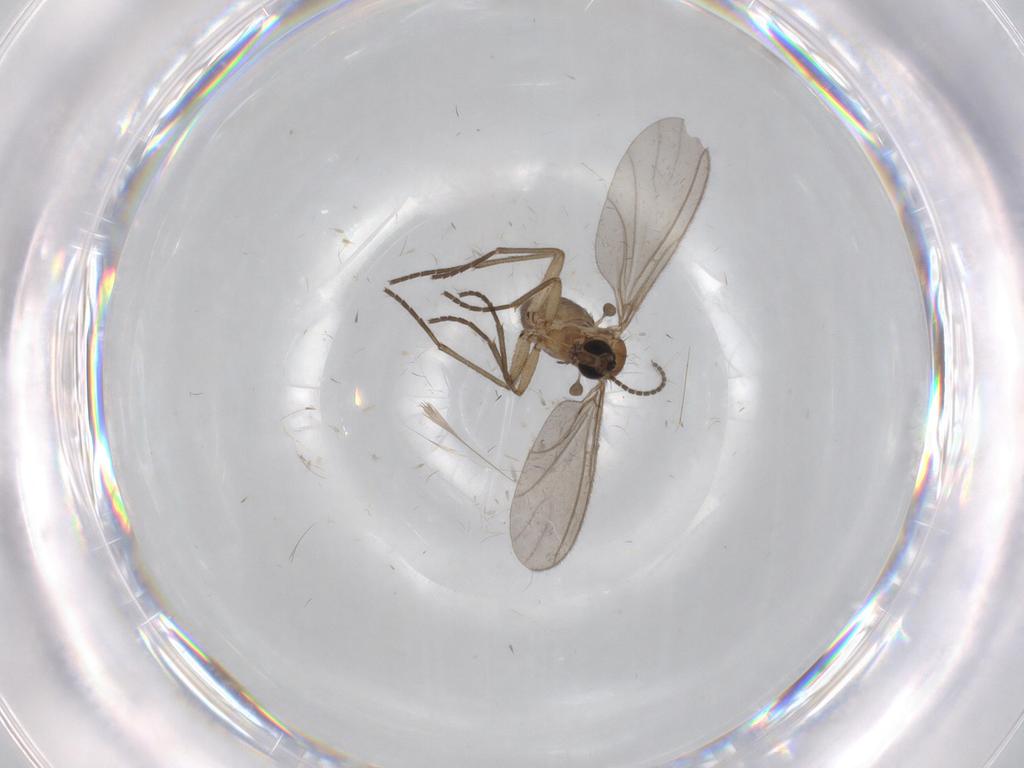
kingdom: Animalia
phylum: Arthropoda
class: Insecta
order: Diptera
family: Sciaridae
